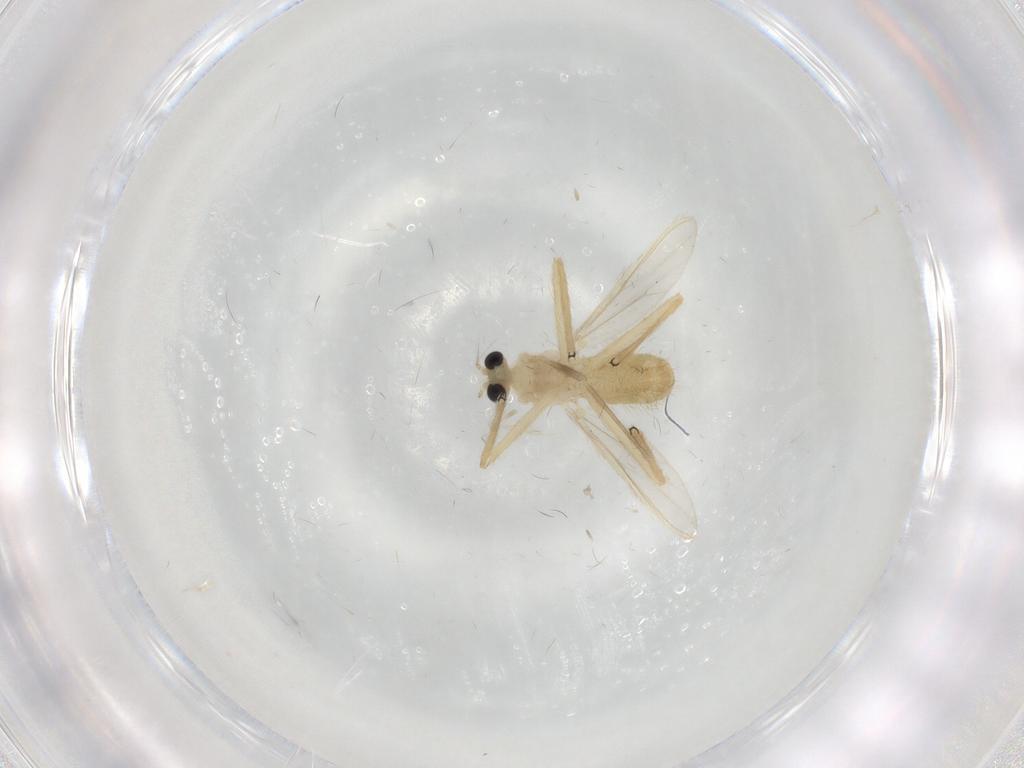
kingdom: Animalia
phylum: Arthropoda
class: Insecta
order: Diptera
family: Chironomidae
